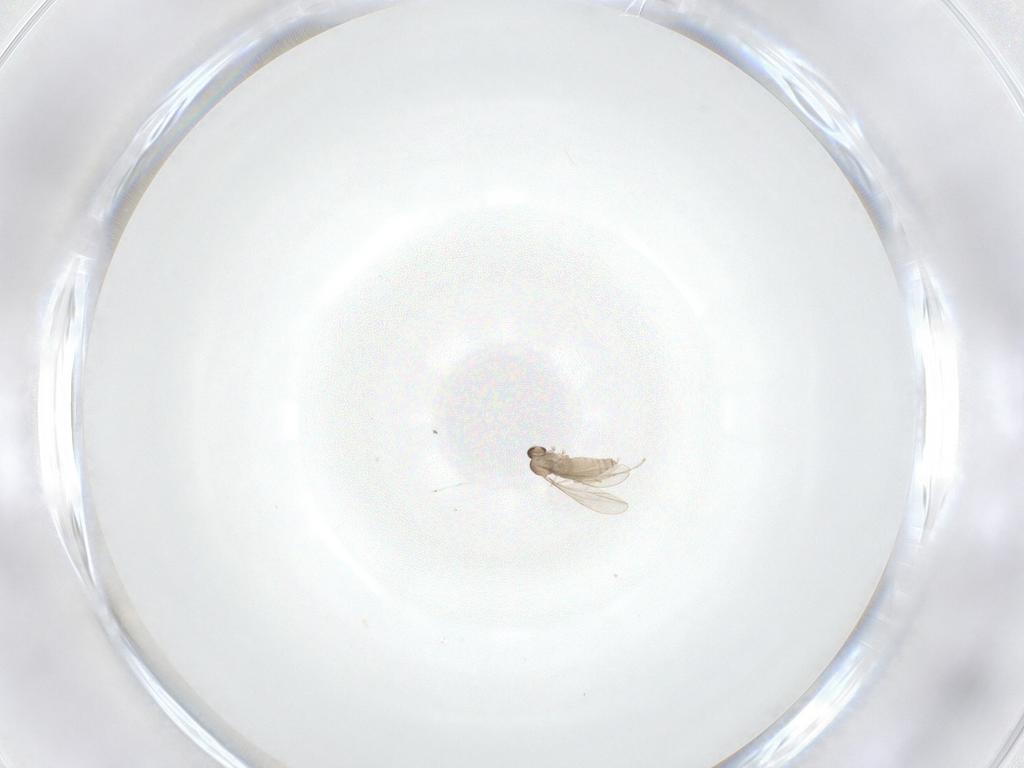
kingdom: Animalia
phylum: Arthropoda
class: Insecta
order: Diptera
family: Cecidomyiidae
